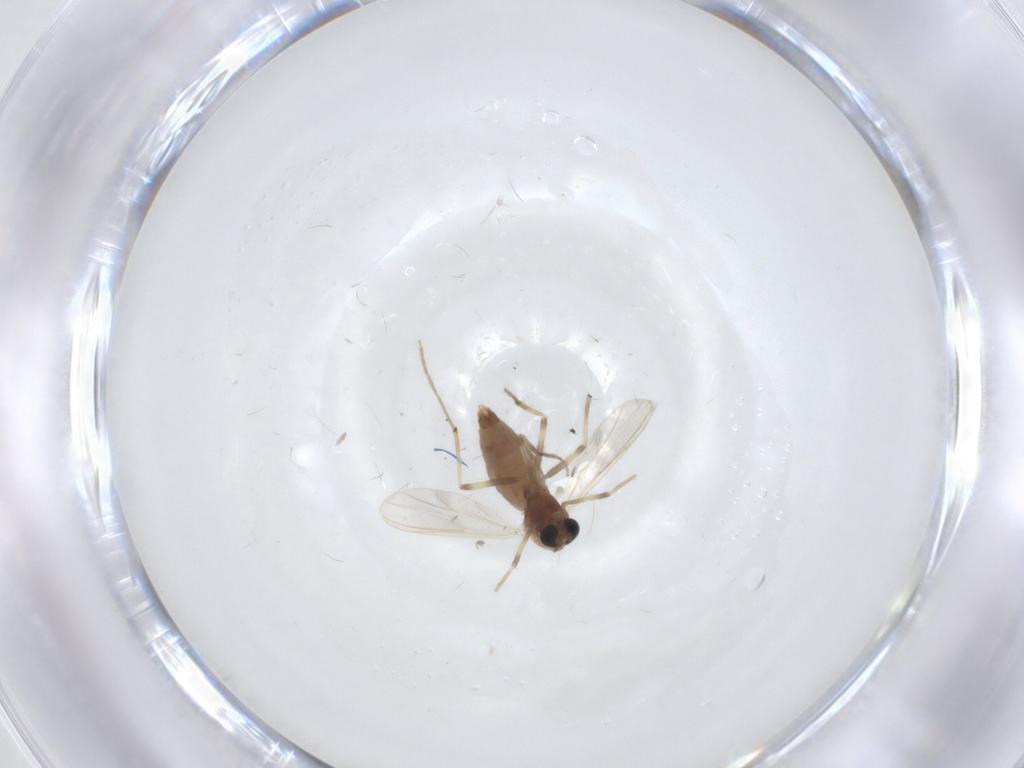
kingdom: Animalia
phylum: Arthropoda
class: Insecta
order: Diptera
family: Chironomidae
